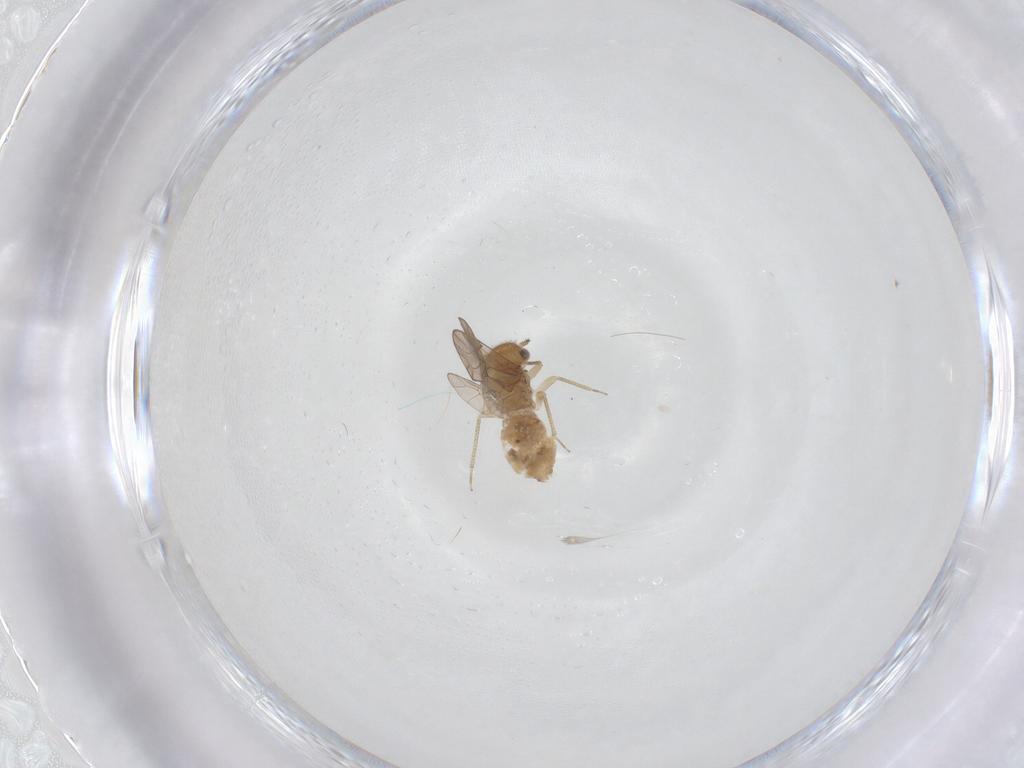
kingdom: Animalia
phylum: Arthropoda
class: Insecta
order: Psocodea
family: Ectopsocidae
